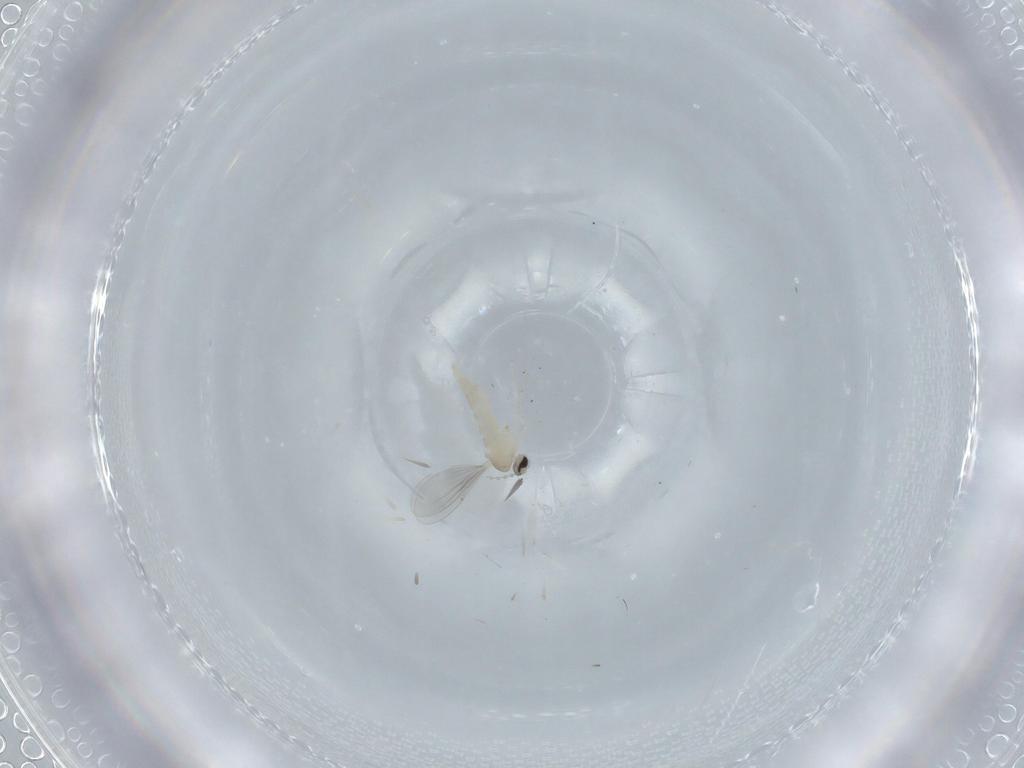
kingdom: Animalia
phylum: Arthropoda
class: Insecta
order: Diptera
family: Cecidomyiidae
